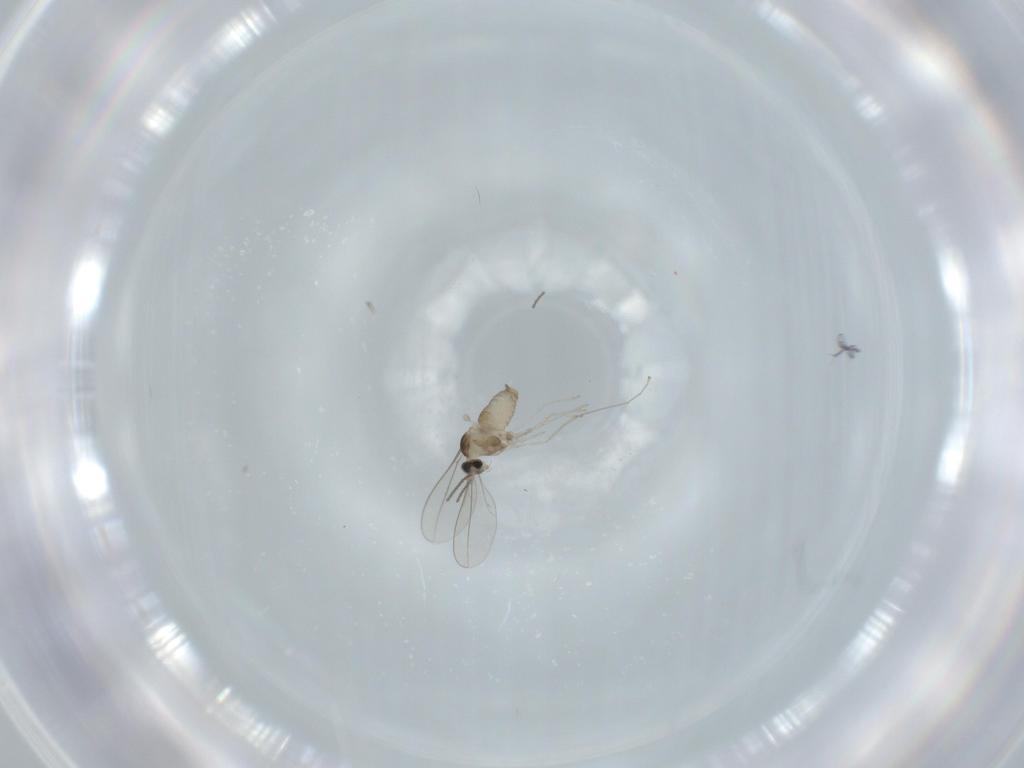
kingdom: Animalia
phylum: Arthropoda
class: Insecta
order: Diptera
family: Cecidomyiidae
